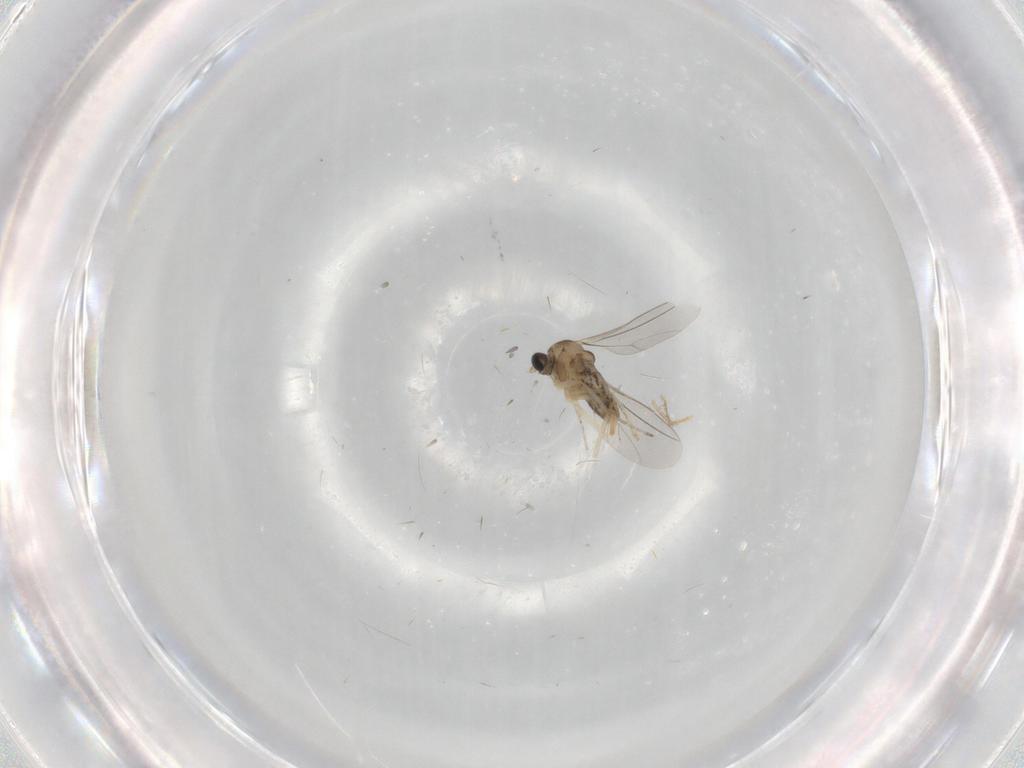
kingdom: Animalia
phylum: Arthropoda
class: Insecta
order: Diptera
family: Cecidomyiidae
